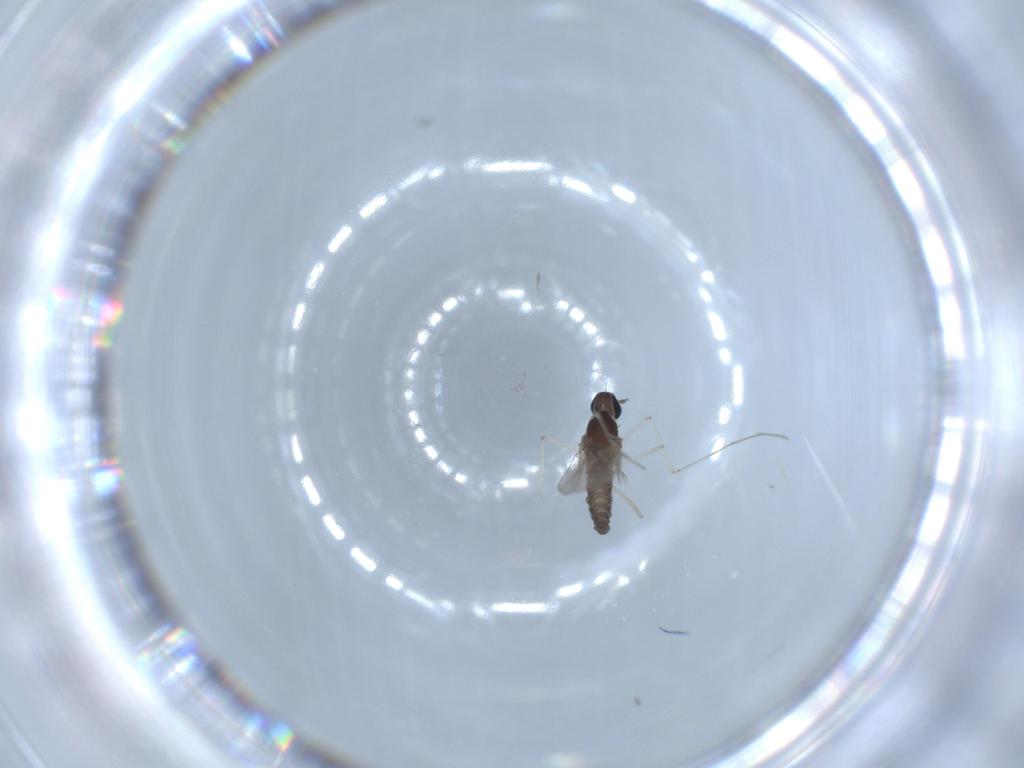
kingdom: Animalia
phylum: Arthropoda
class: Insecta
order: Diptera
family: Cecidomyiidae
